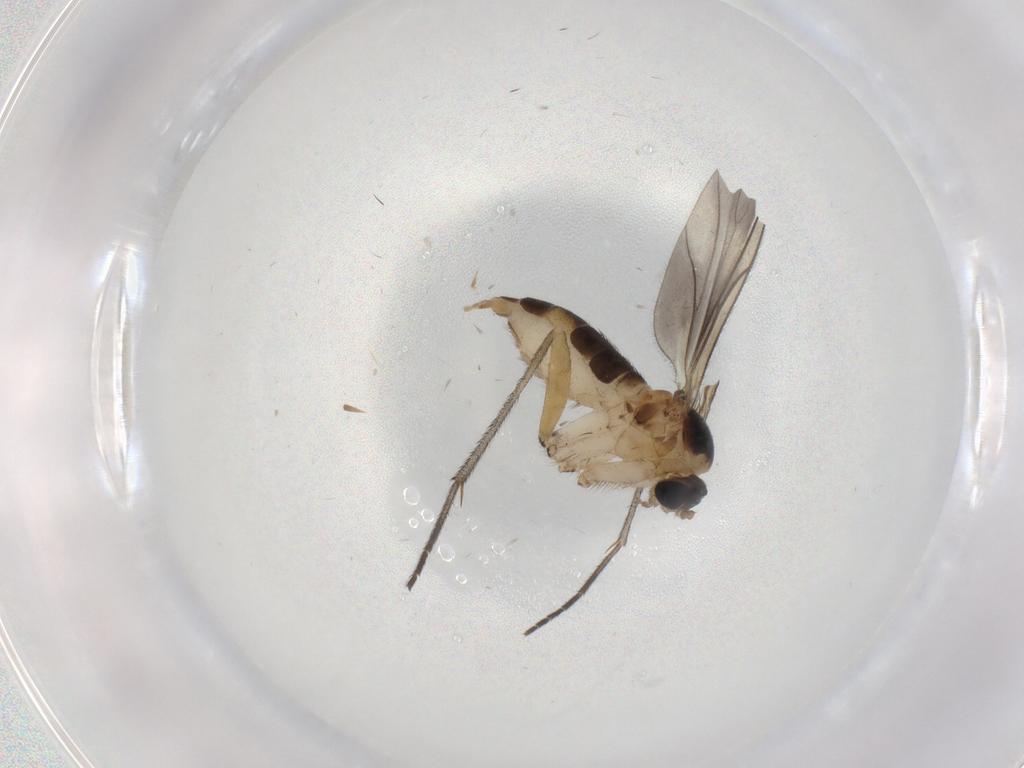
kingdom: Animalia
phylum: Arthropoda
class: Insecta
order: Diptera
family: Sciaridae
